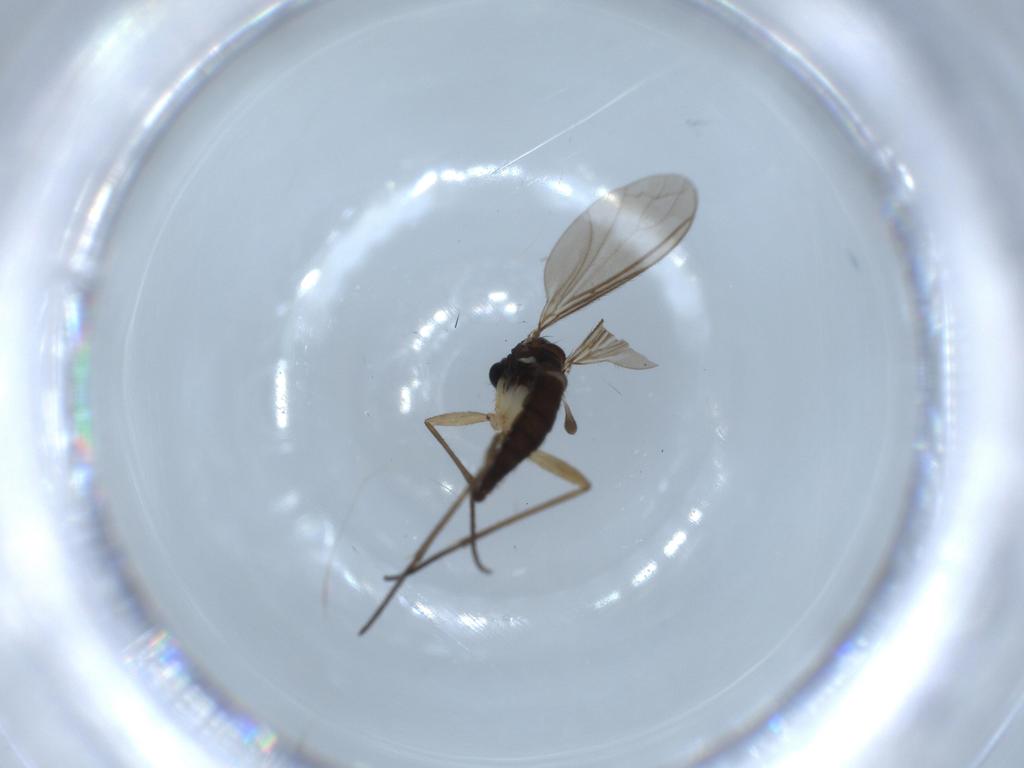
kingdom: Animalia
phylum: Arthropoda
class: Insecta
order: Diptera
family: Sciaridae
